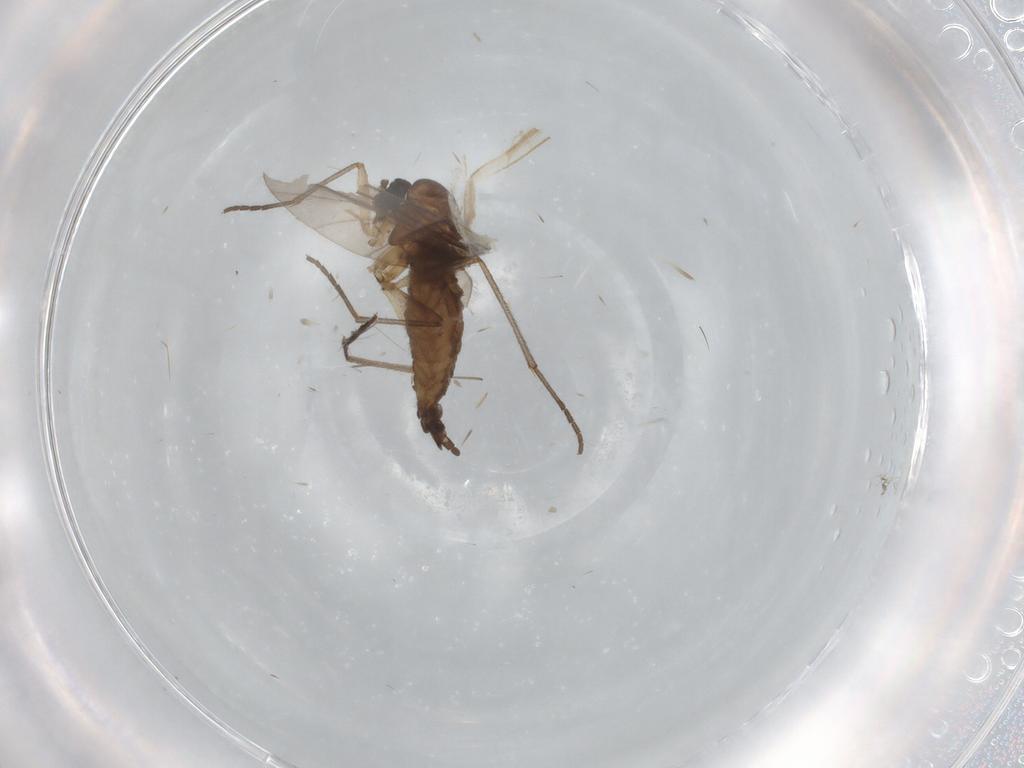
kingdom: Animalia
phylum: Arthropoda
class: Insecta
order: Diptera
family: Sciaridae
